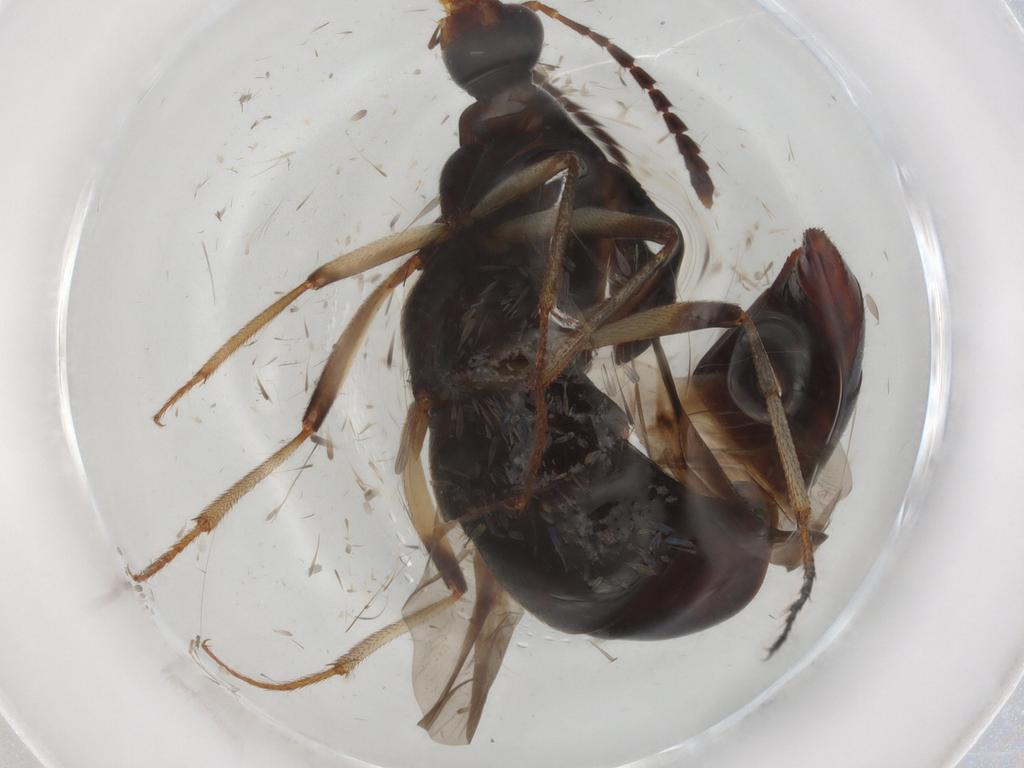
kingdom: Animalia
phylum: Arthropoda
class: Insecta
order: Coleoptera
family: Staphylinidae
